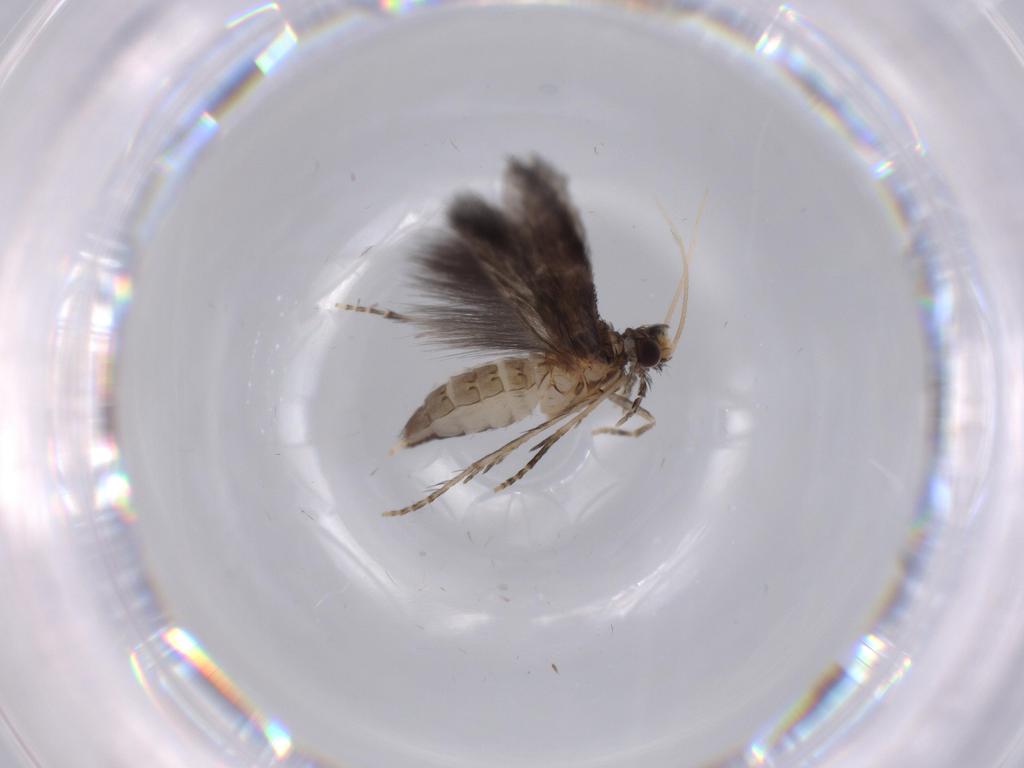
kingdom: Animalia
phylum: Arthropoda
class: Insecta
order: Trichoptera
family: Hydroptilidae
